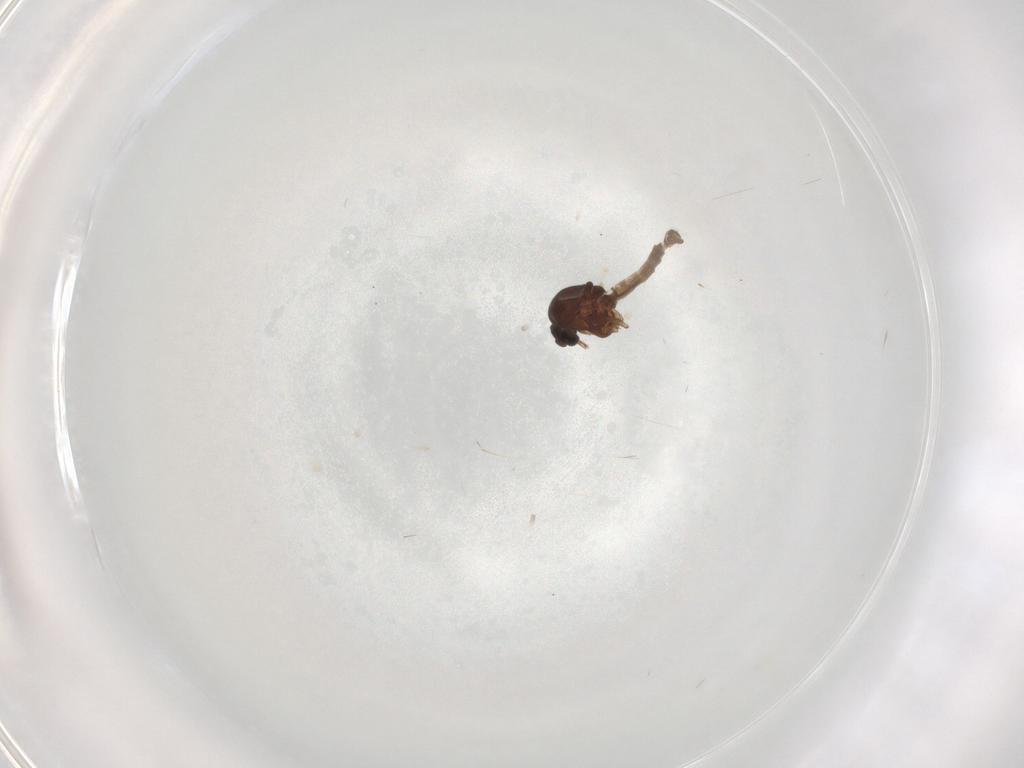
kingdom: Animalia
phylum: Arthropoda
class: Insecta
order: Diptera
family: Ceratopogonidae
